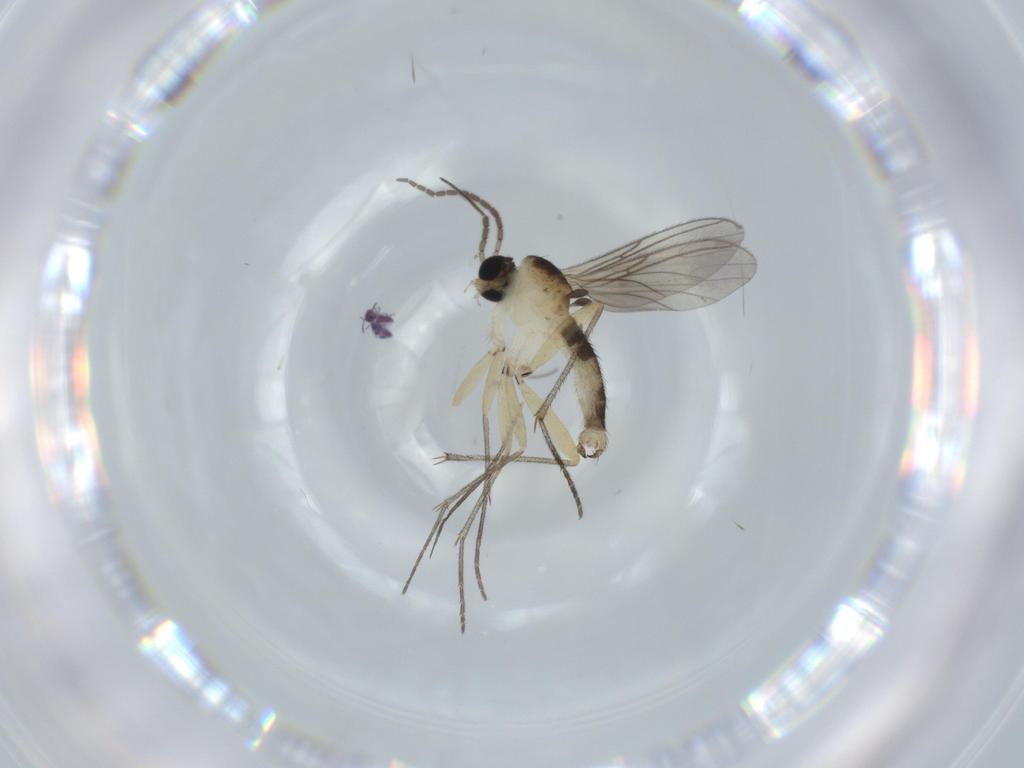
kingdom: Animalia
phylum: Arthropoda
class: Insecta
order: Diptera
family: Sciaridae
